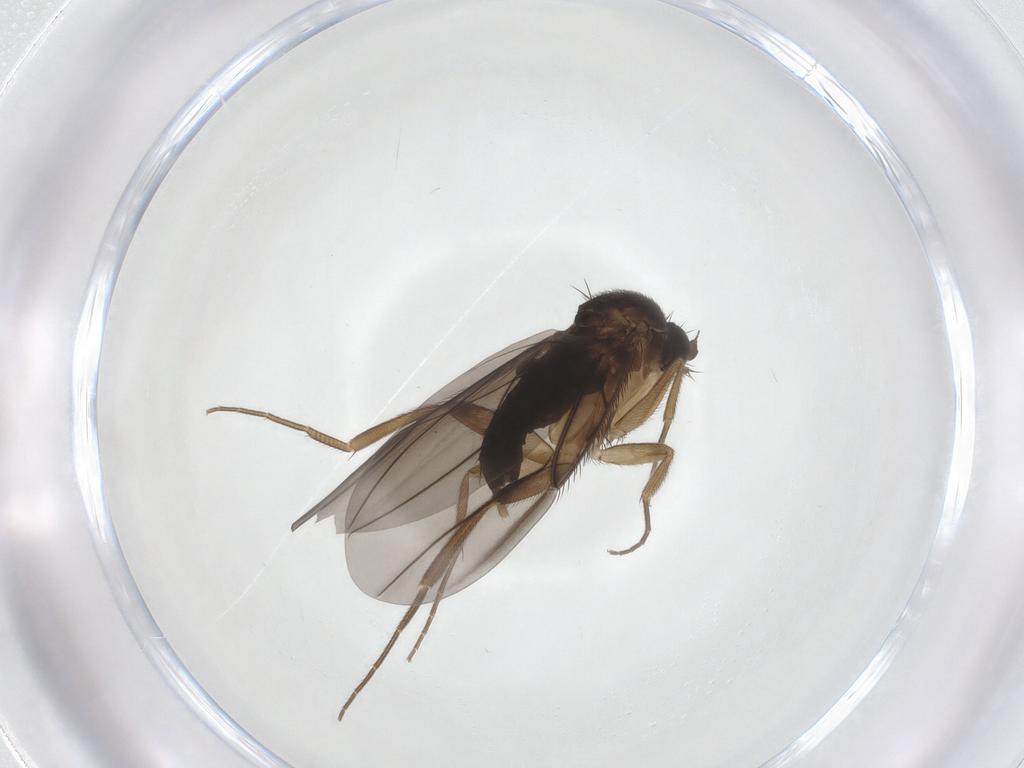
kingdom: Animalia
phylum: Arthropoda
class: Insecta
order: Diptera
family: Phoridae
